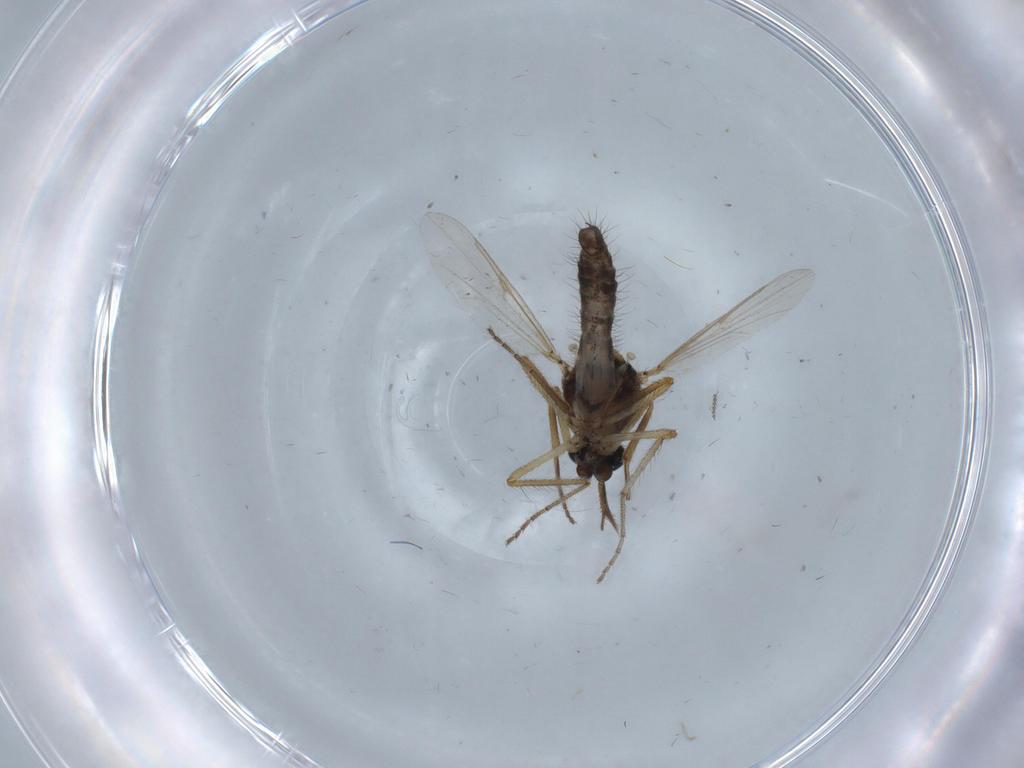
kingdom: Animalia
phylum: Arthropoda
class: Insecta
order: Diptera
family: Ceratopogonidae
